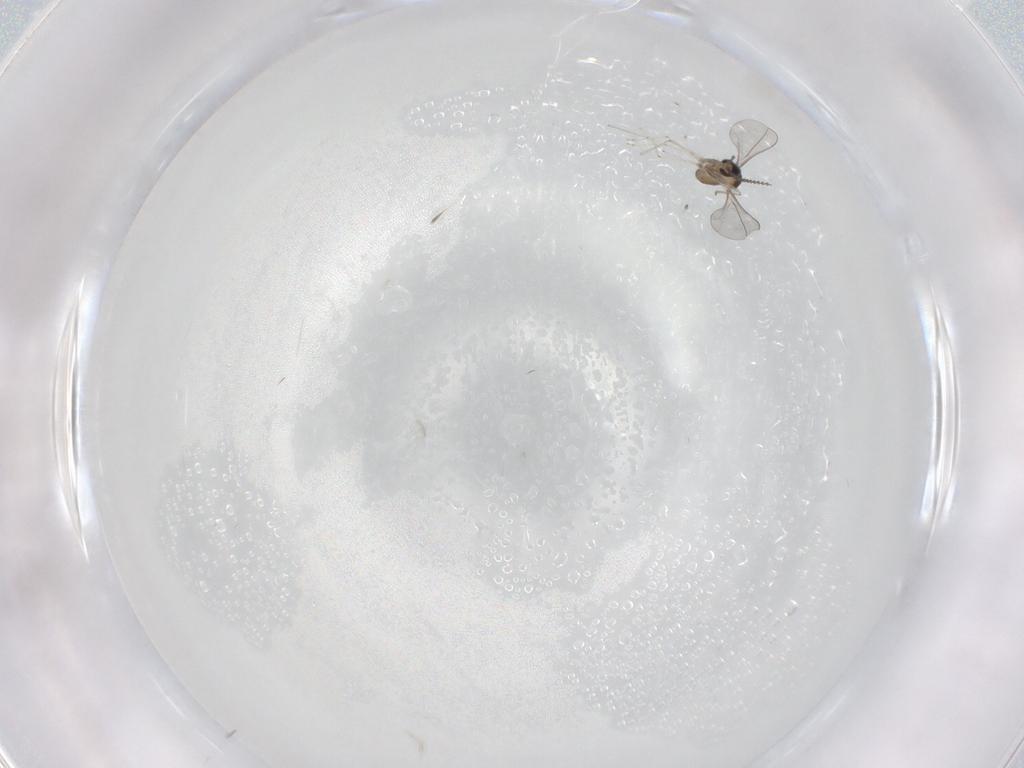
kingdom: Animalia
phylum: Arthropoda
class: Insecta
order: Diptera
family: Cecidomyiidae
